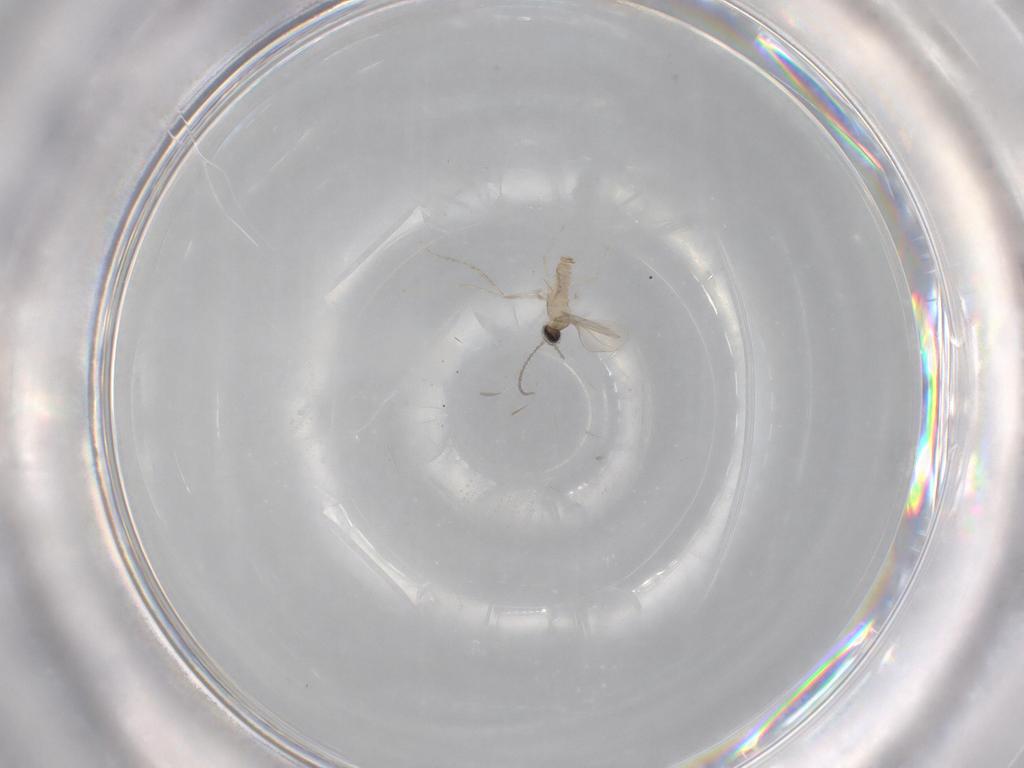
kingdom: Animalia
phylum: Arthropoda
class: Insecta
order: Diptera
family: Cecidomyiidae
